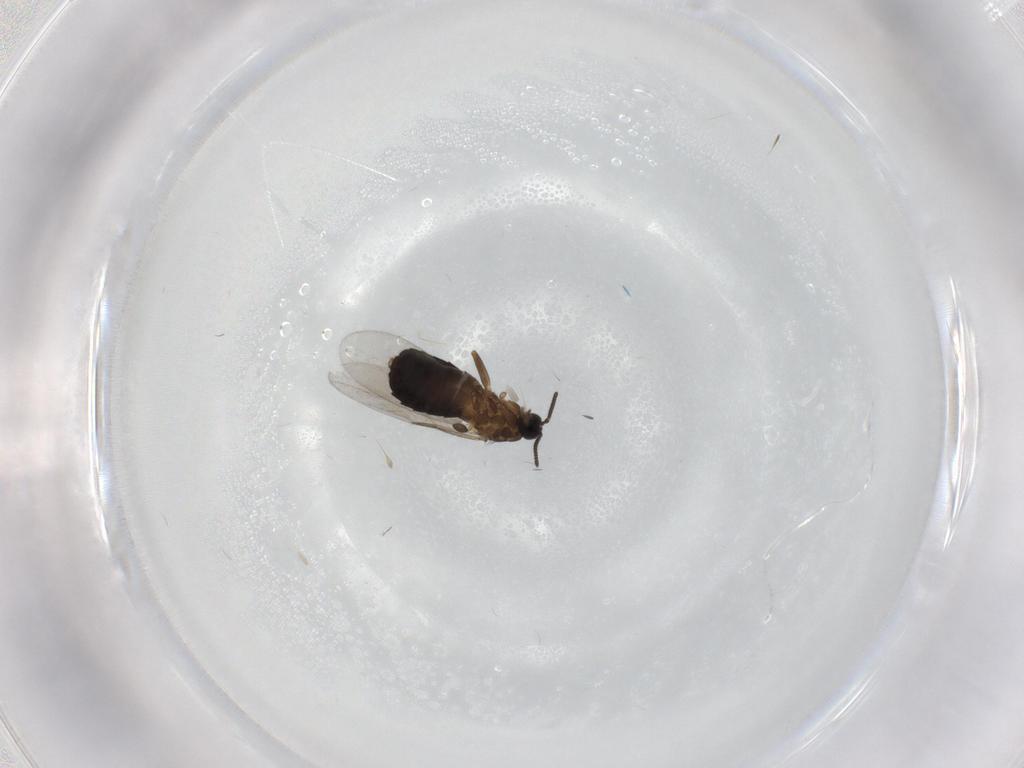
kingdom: Animalia
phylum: Arthropoda
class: Insecta
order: Diptera
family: Scatopsidae
